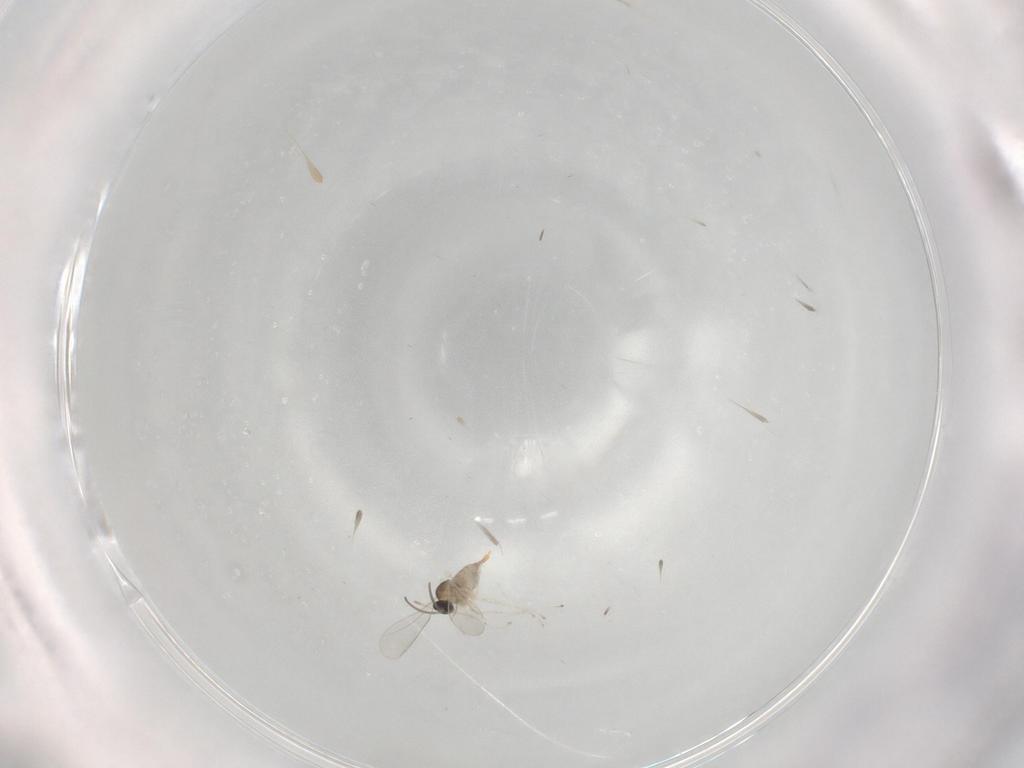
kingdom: Animalia
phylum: Arthropoda
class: Insecta
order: Diptera
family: Cecidomyiidae
